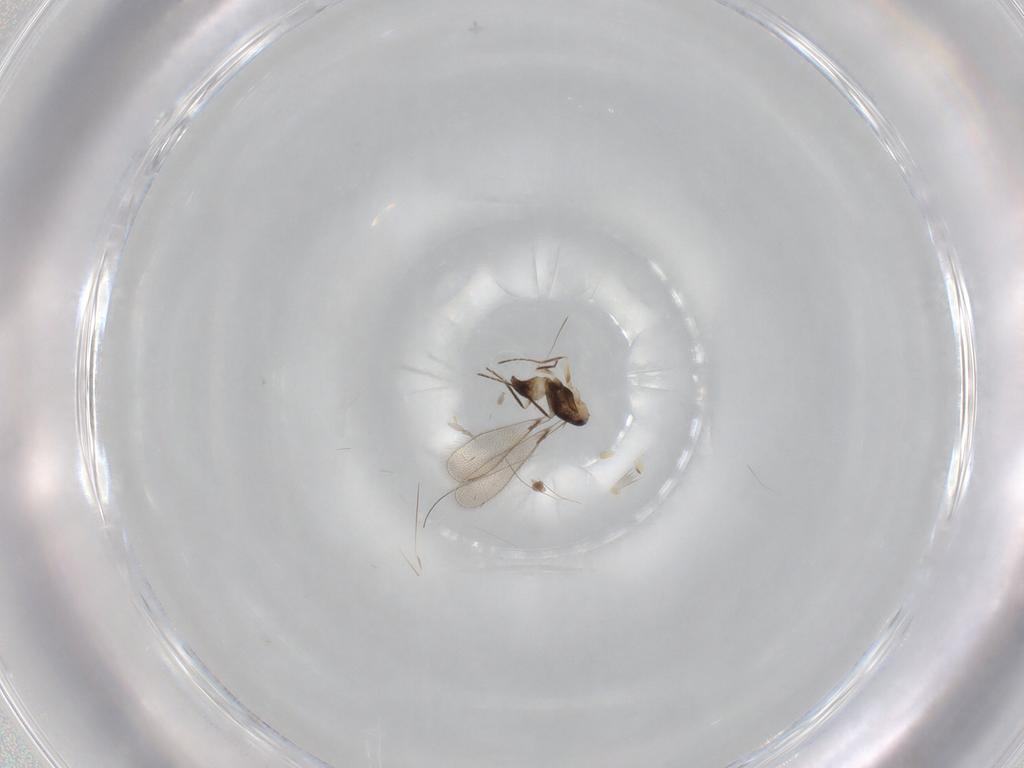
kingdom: Animalia
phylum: Arthropoda
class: Insecta
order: Hymenoptera
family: Mymaridae
